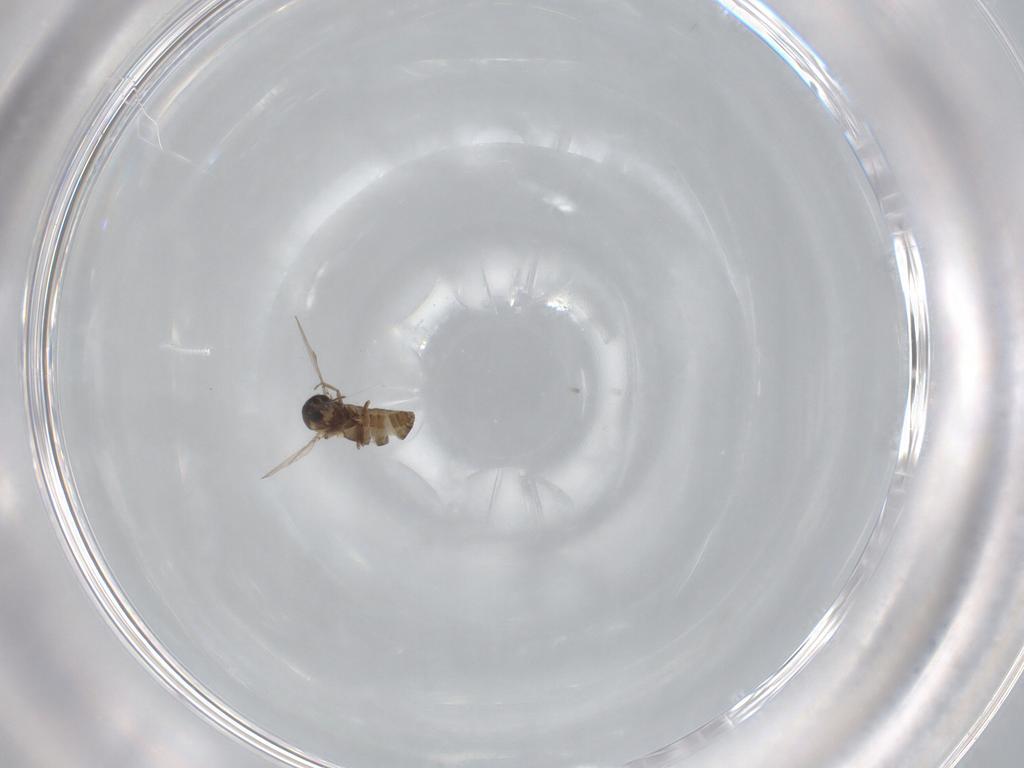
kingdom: Animalia
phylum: Arthropoda
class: Insecta
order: Diptera
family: Ceratopogonidae
